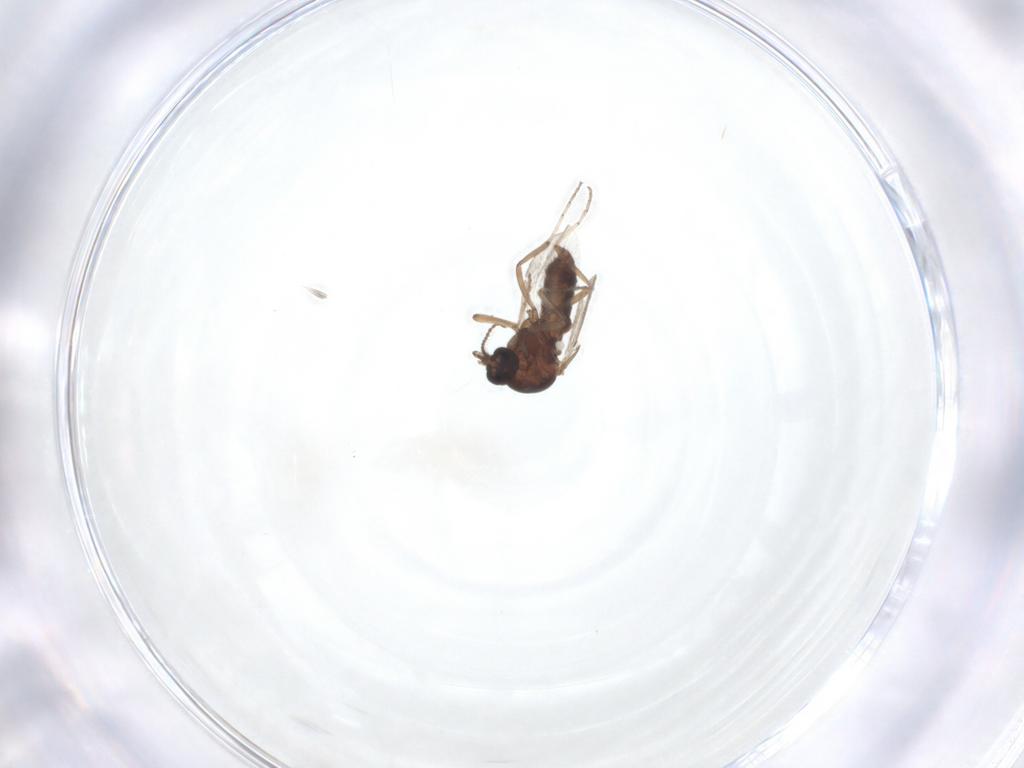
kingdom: Animalia
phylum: Arthropoda
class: Insecta
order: Diptera
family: Ceratopogonidae
